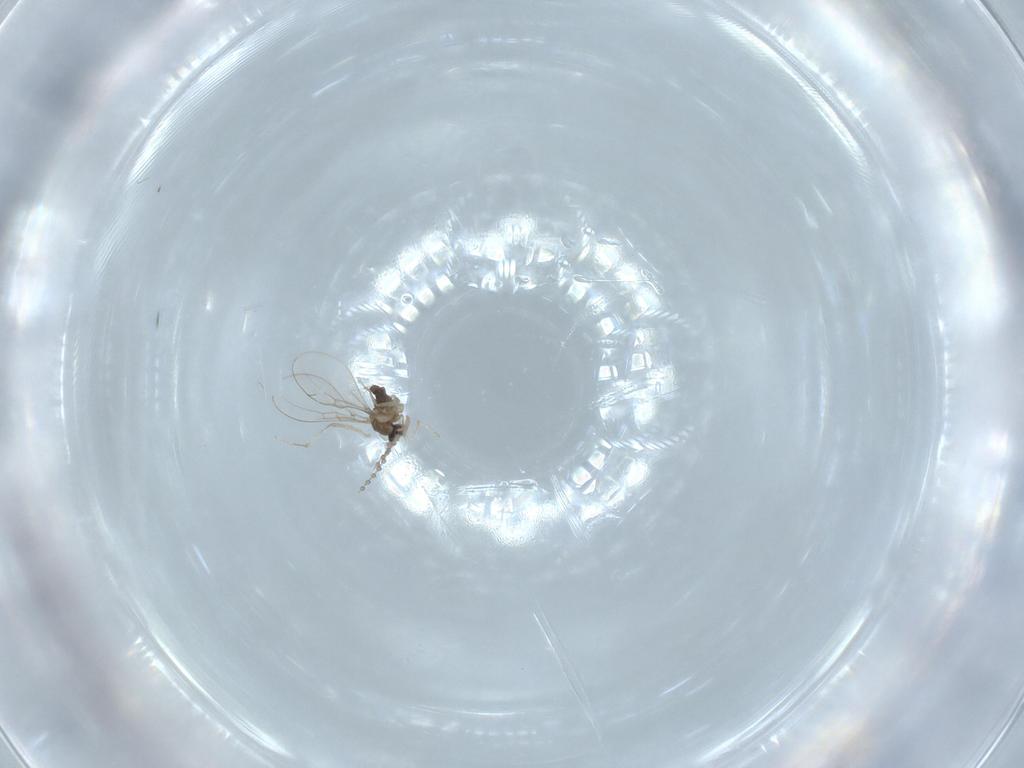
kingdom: Animalia
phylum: Arthropoda
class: Insecta
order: Diptera
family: Cecidomyiidae
